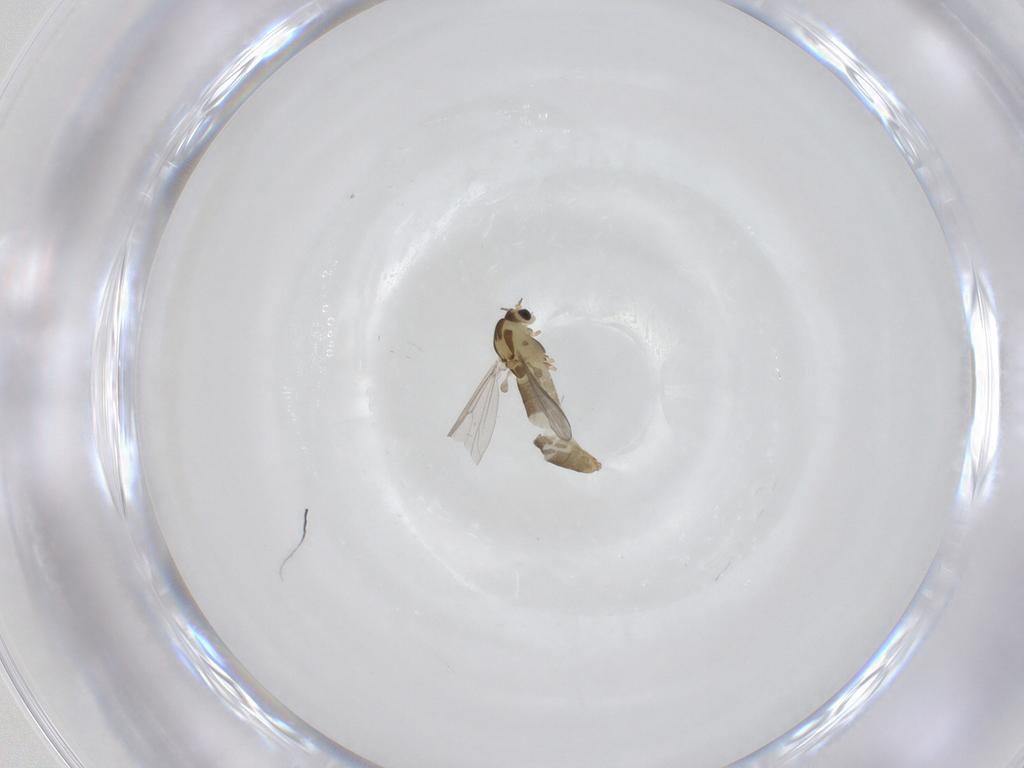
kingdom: Animalia
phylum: Arthropoda
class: Insecta
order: Diptera
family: Chironomidae
